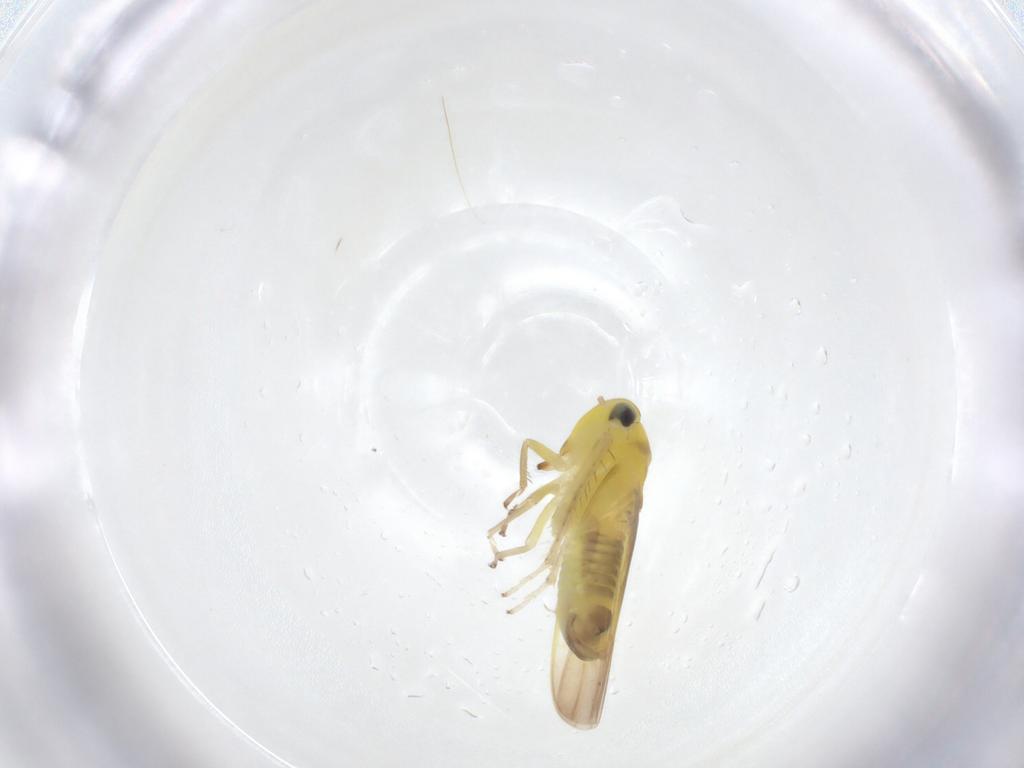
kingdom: Animalia
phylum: Arthropoda
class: Insecta
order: Hemiptera
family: Cicadellidae
